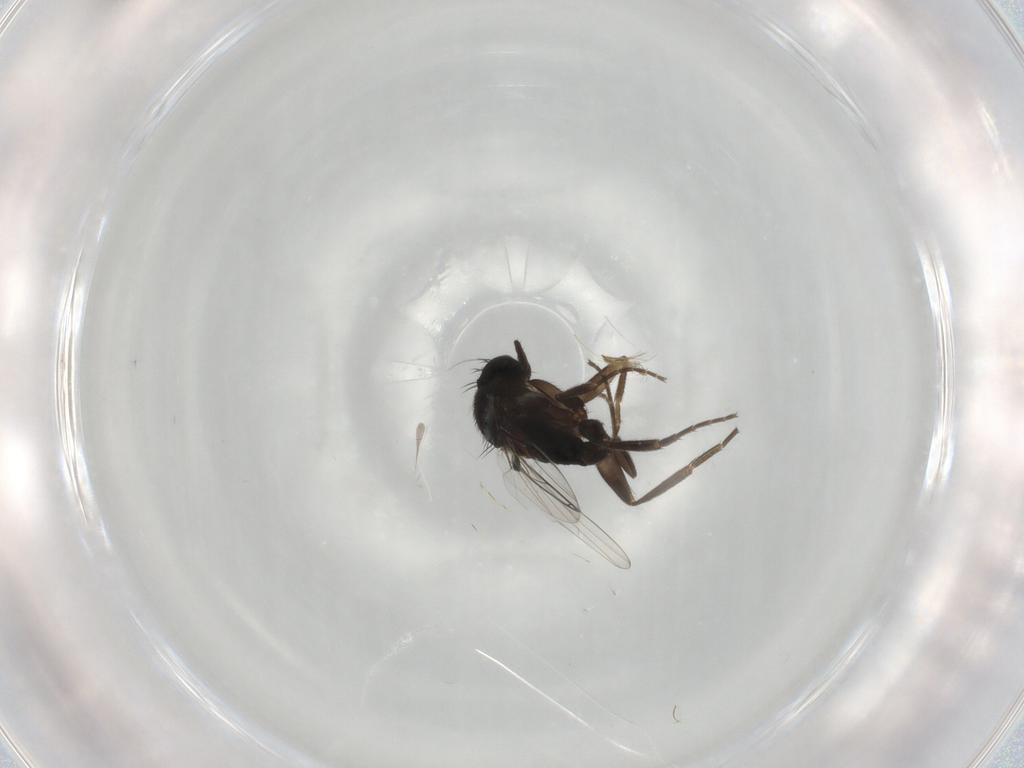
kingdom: Animalia
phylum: Arthropoda
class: Insecta
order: Diptera
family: Phoridae
